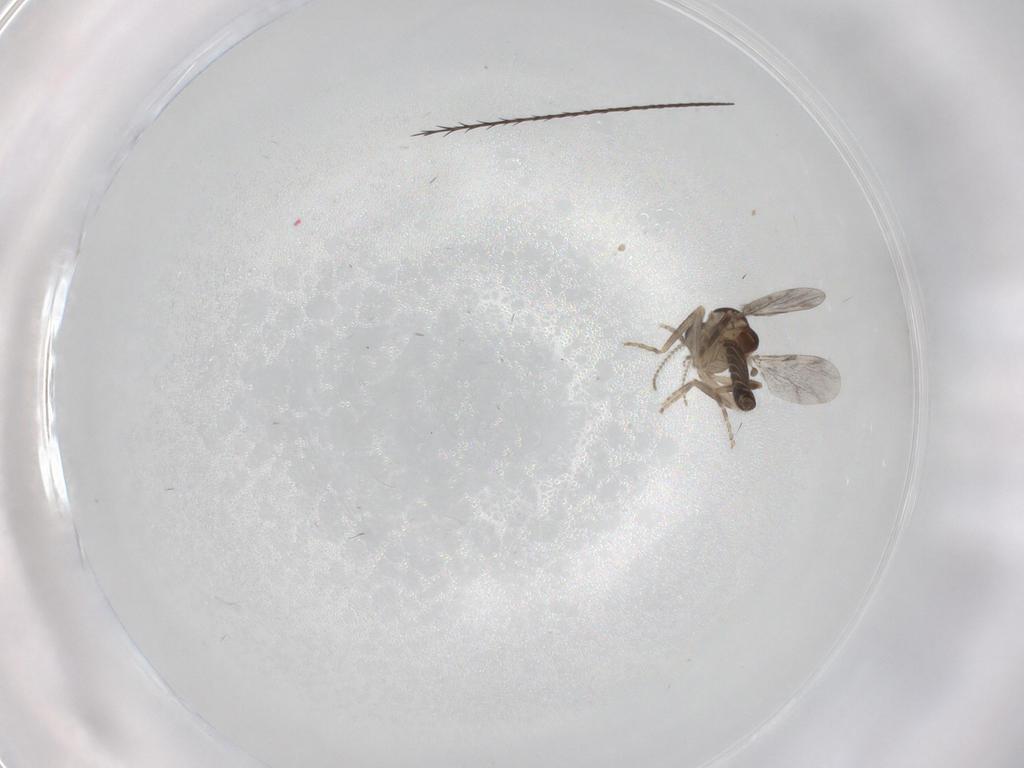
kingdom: Animalia
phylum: Arthropoda
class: Insecta
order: Diptera
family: Ceratopogonidae
